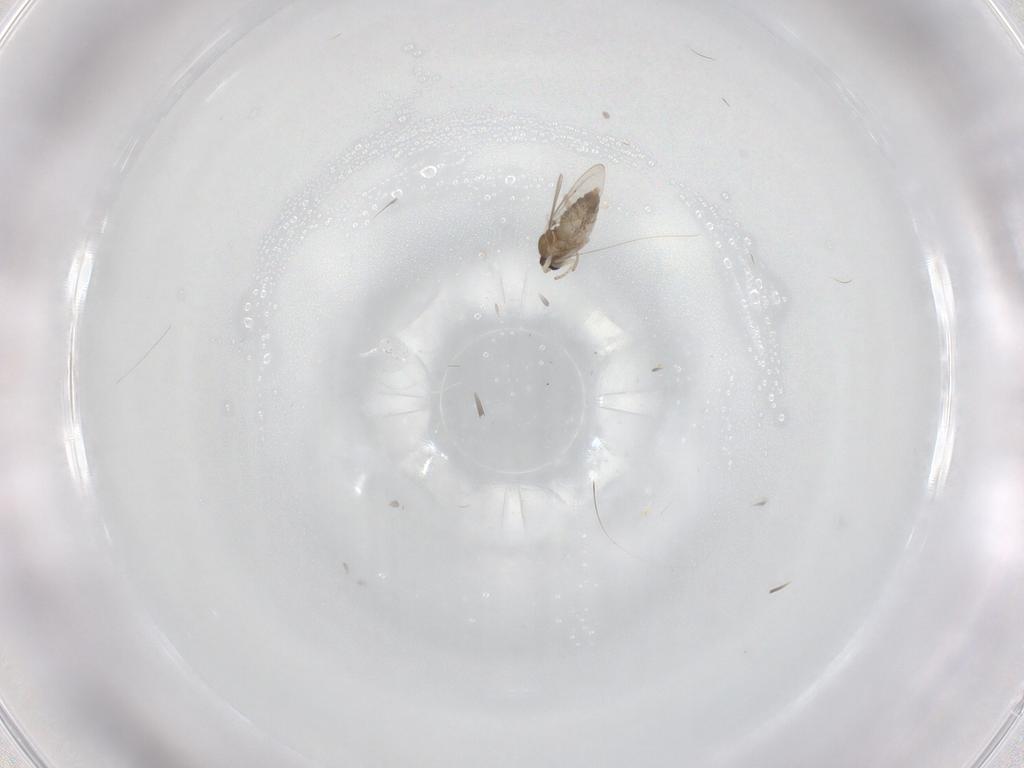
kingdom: Animalia
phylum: Arthropoda
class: Insecta
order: Diptera
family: Cecidomyiidae
